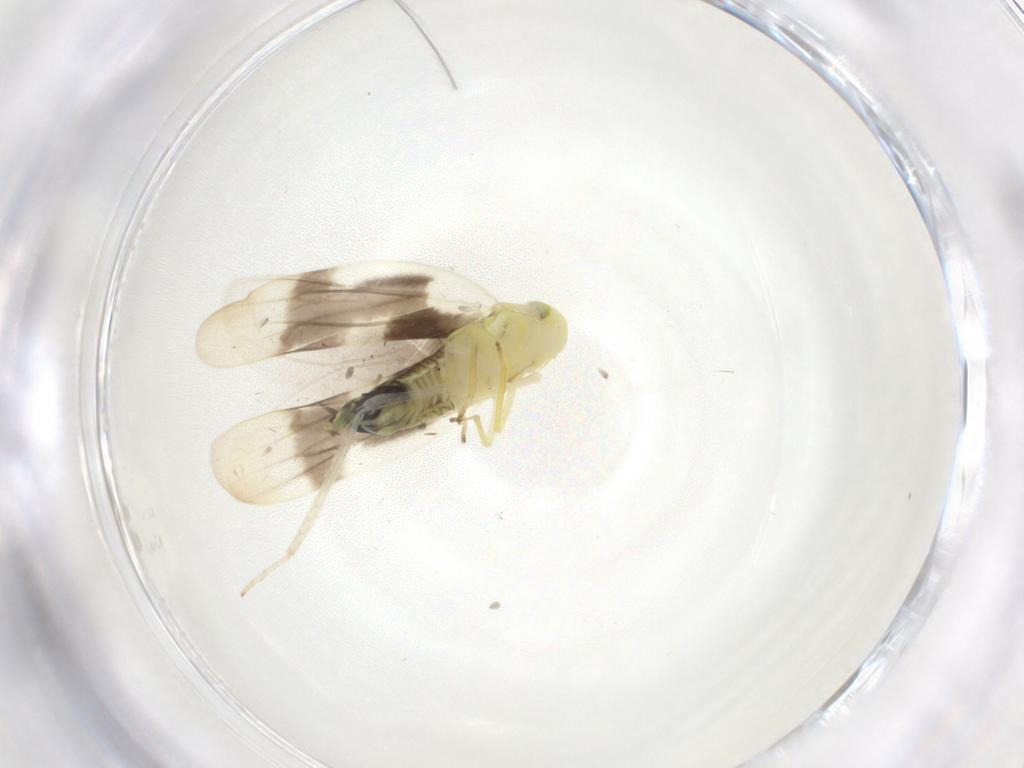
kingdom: Animalia
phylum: Arthropoda
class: Insecta
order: Hemiptera
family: Cicadellidae
